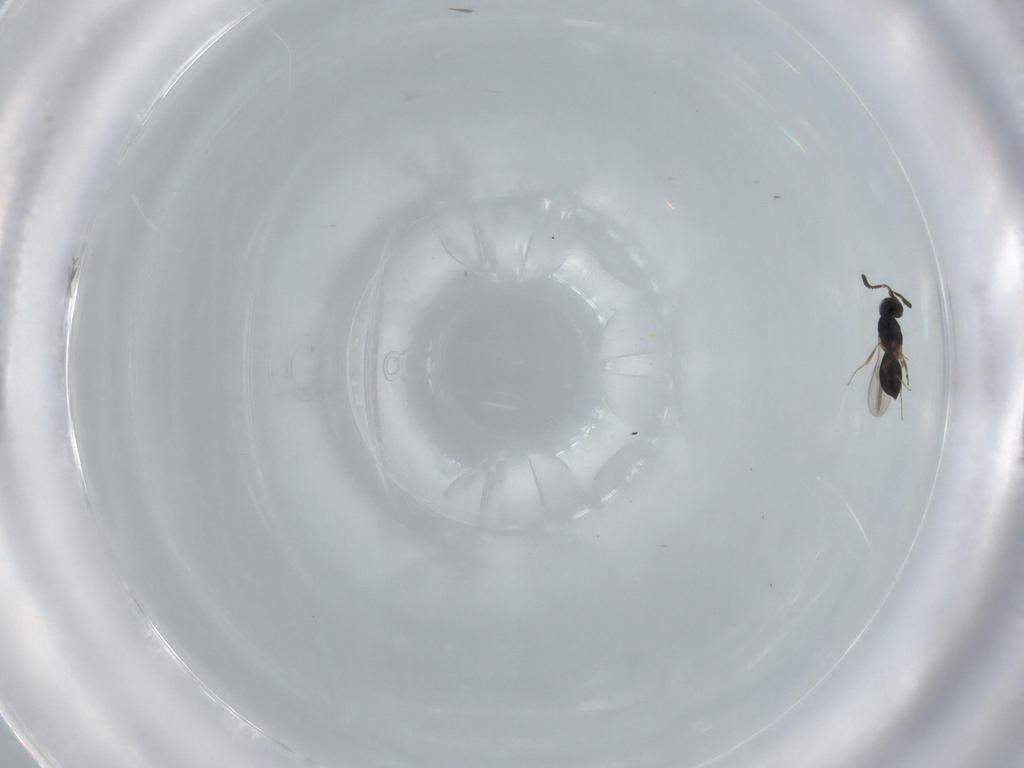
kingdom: Animalia
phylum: Arthropoda
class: Insecta
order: Hymenoptera
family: Scelionidae
